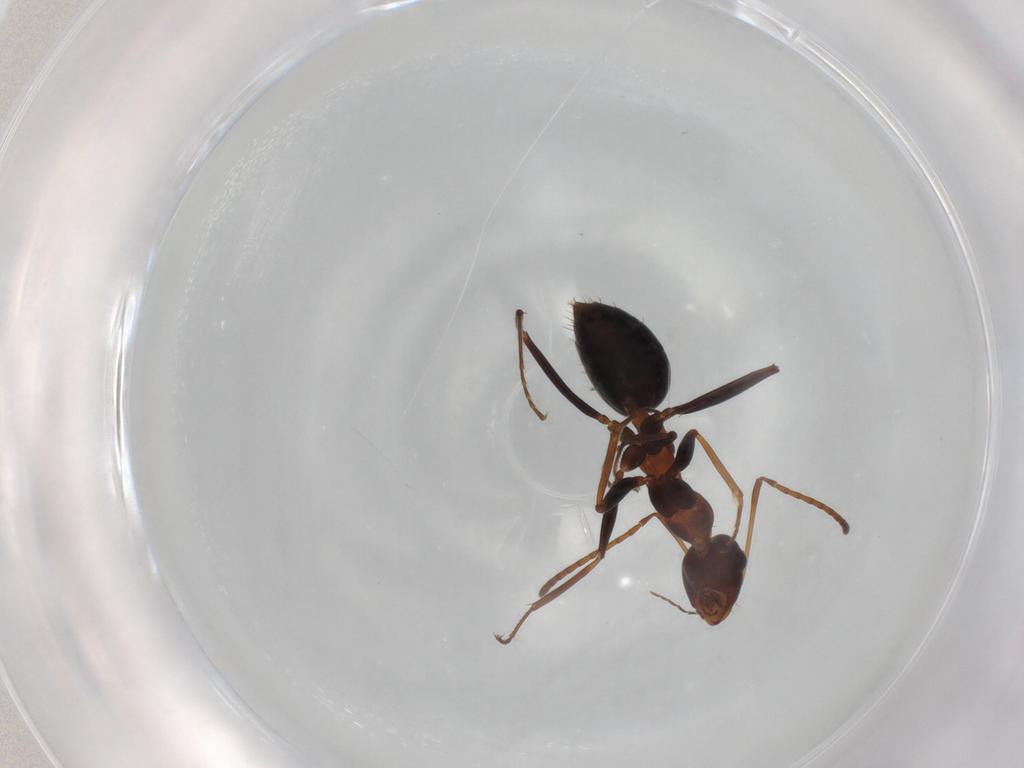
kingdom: Animalia
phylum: Arthropoda
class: Insecta
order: Hymenoptera
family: Formicidae
